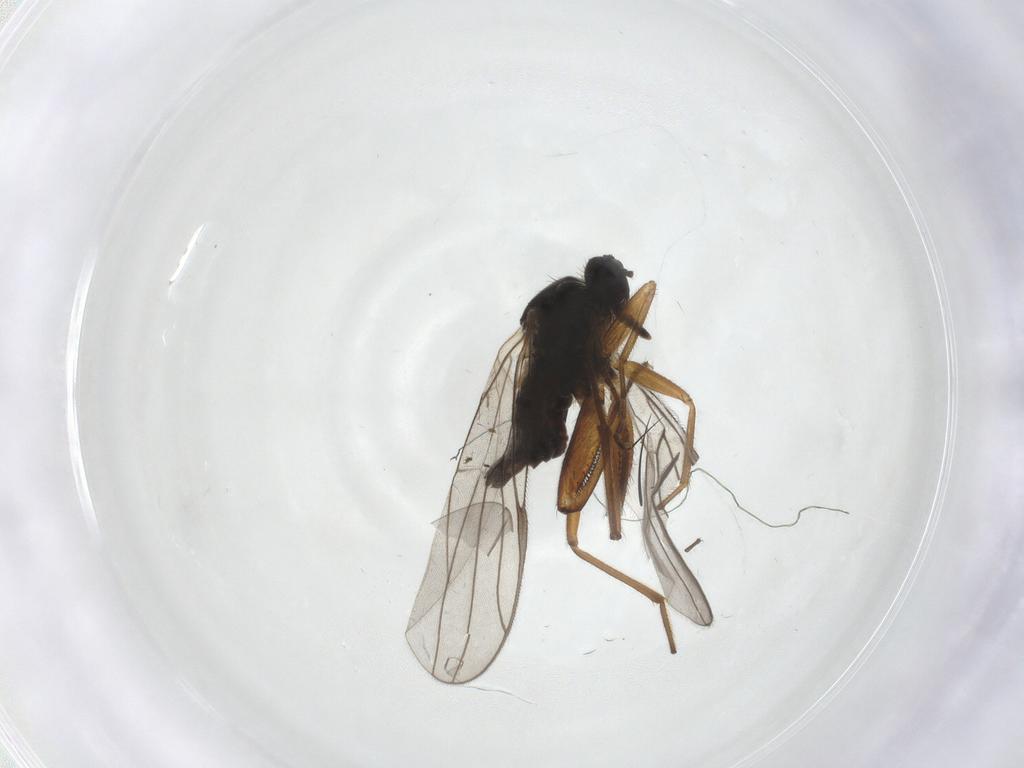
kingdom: Animalia
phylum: Arthropoda
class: Insecta
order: Diptera
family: Hybotidae
